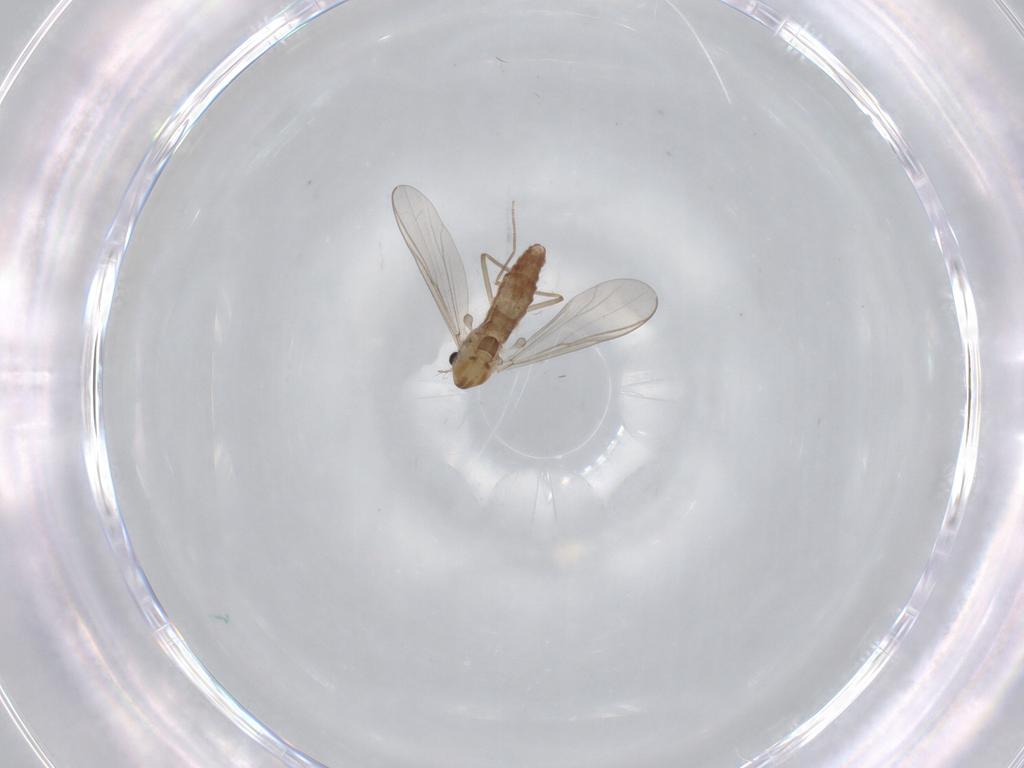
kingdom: Animalia
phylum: Arthropoda
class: Insecta
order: Diptera
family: Chironomidae
